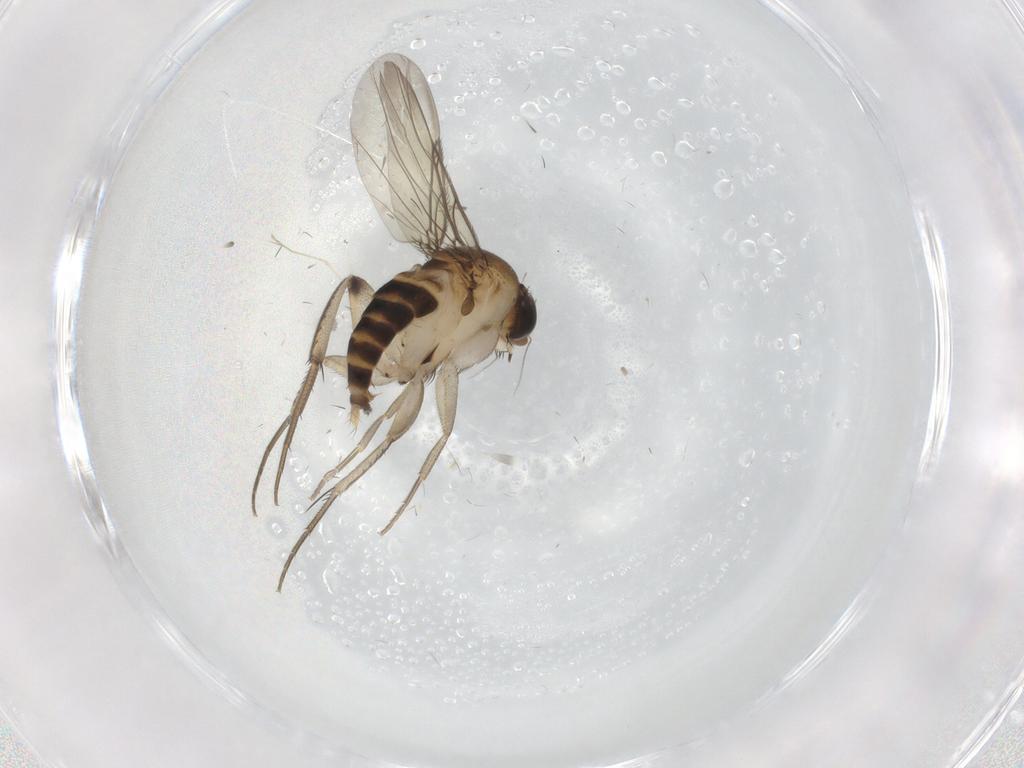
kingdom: Animalia
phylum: Arthropoda
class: Insecta
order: Diptera
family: Phoridae
